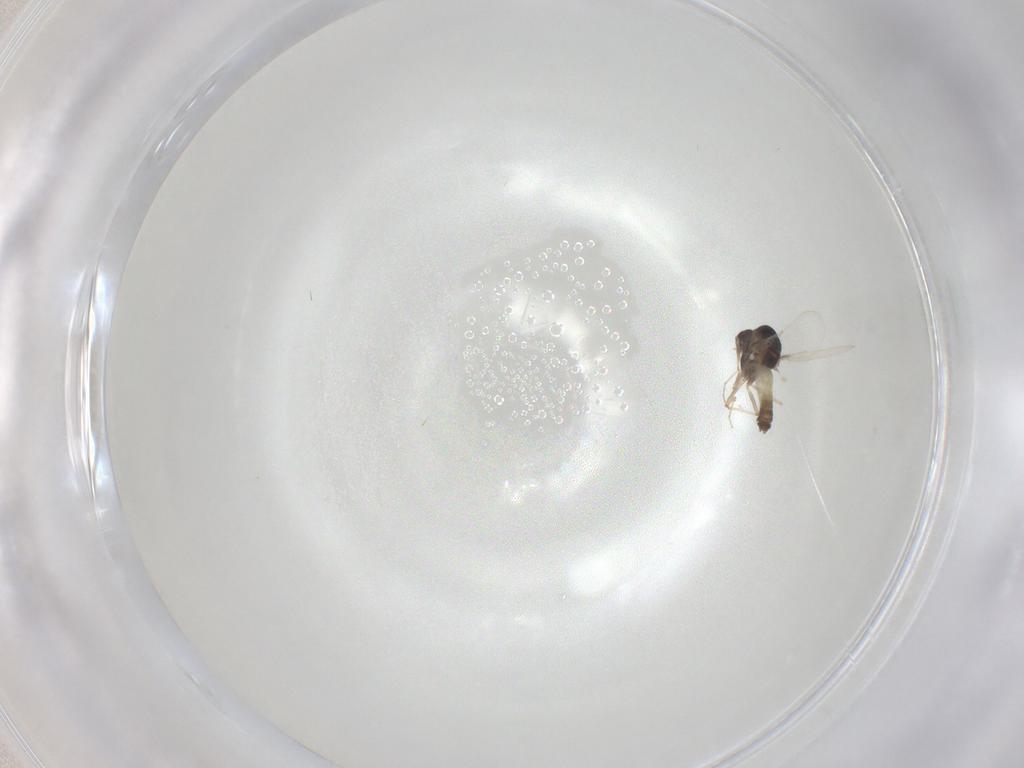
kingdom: Animalia
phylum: Arthropoda
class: Insecta
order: Diptera
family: Chironomidae
